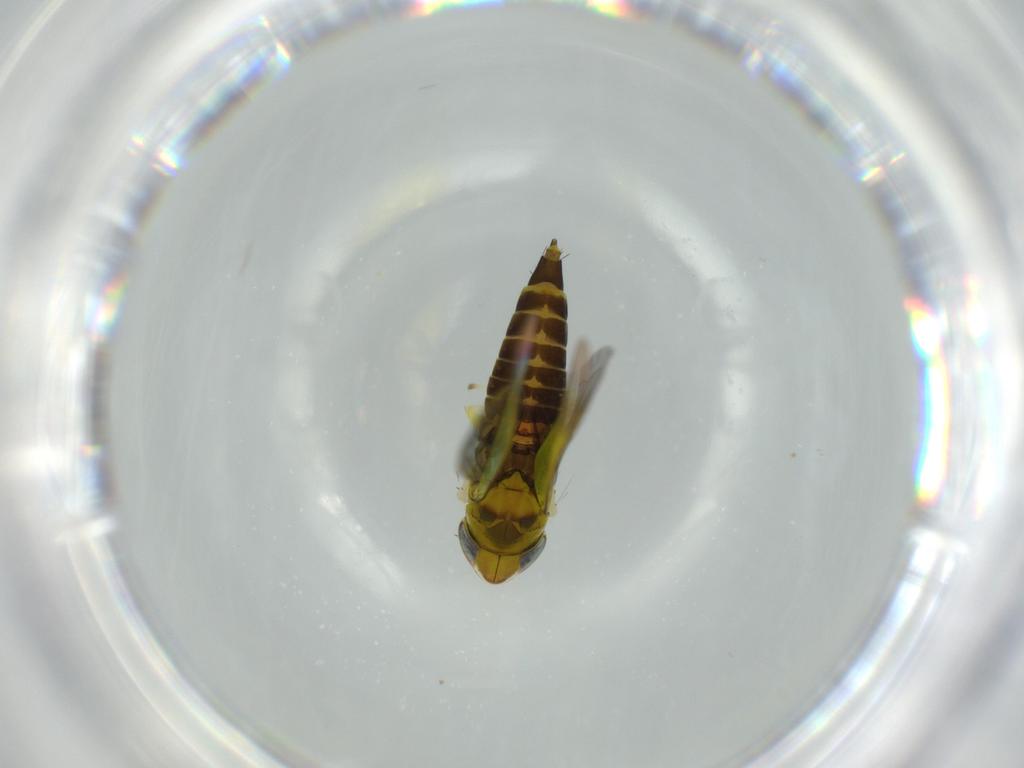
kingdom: Animalia
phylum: Arthropoda
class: Insecta
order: Hemiptera
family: Cicadellidae
